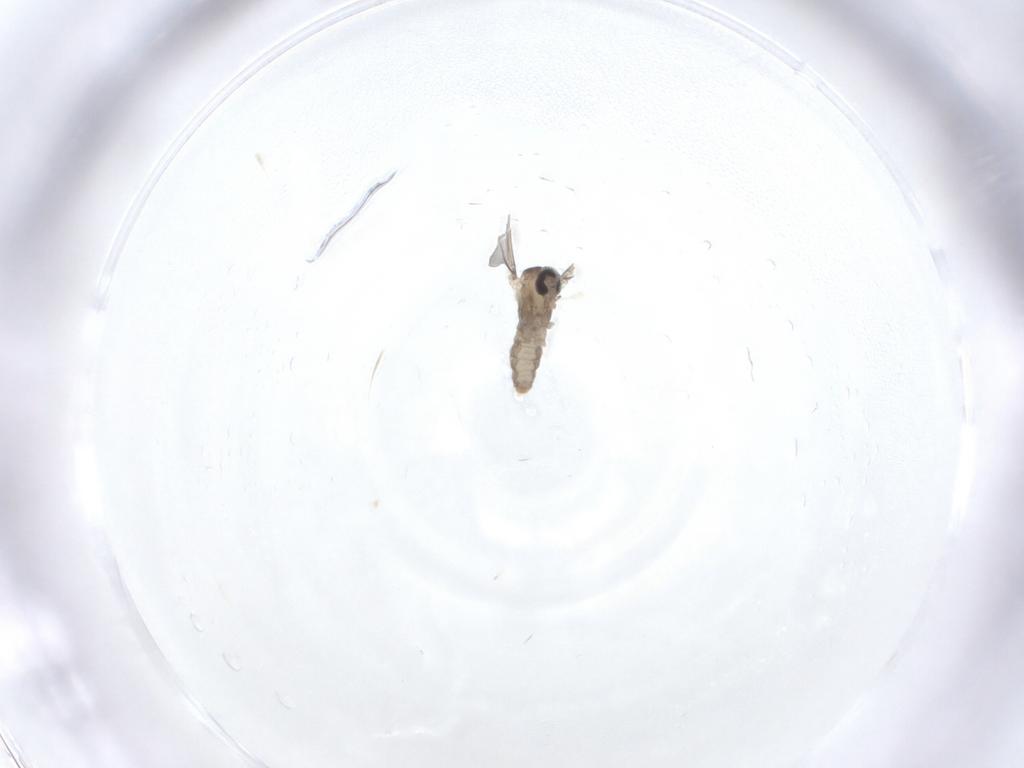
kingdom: Animalia
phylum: Arthropoda
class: Insecta
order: Diptera
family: Cecidomyiidae
